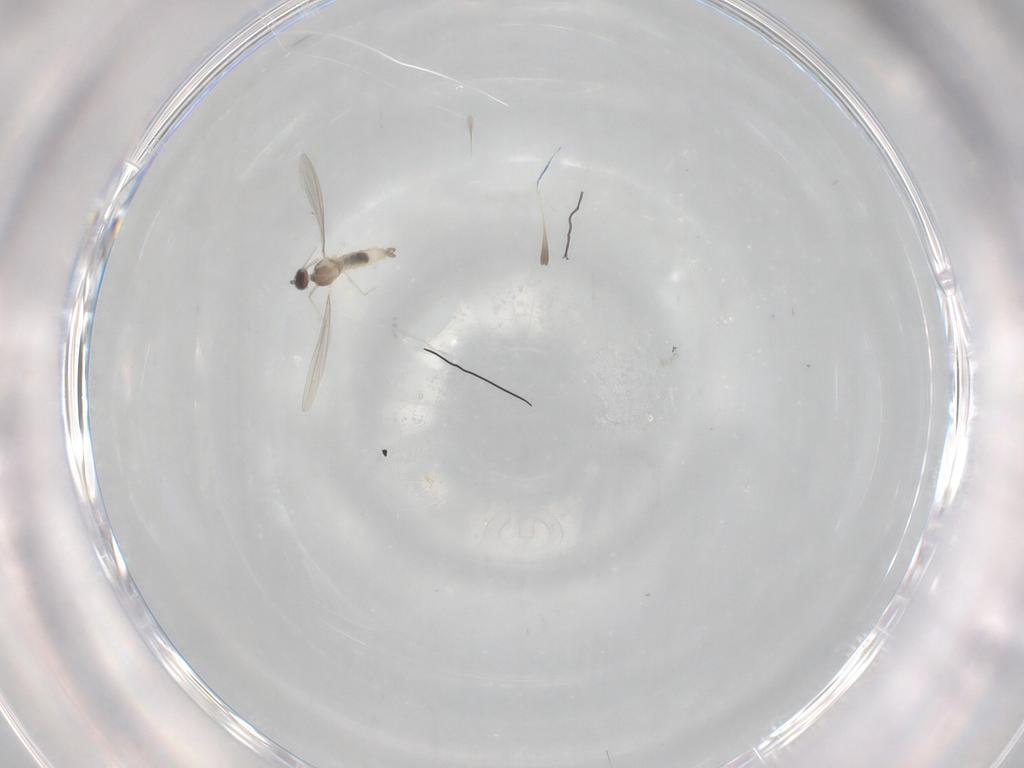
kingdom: Animalia
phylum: Arthropoda
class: Insecta
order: Diptera
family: Cecidomyiidae
